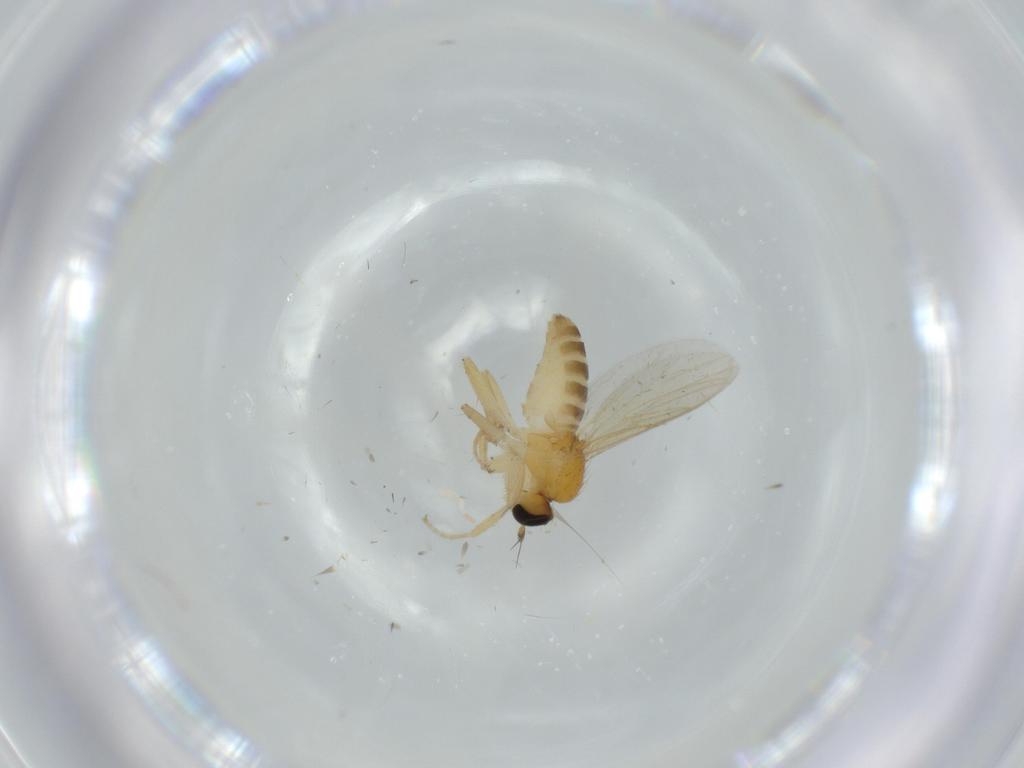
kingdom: Animalia
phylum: Arthropoda
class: Insecta
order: Diptera
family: Hybotidae
